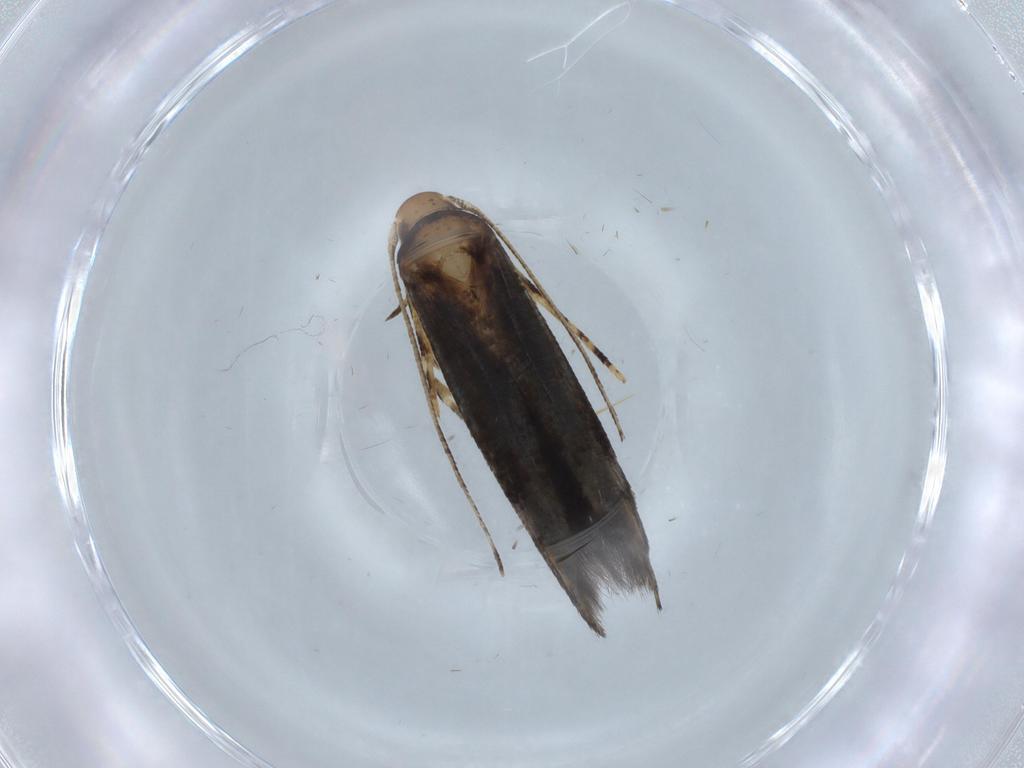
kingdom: Animalia
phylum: Arthropoda
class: Insecta
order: Lepidoptera
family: Momphidae
